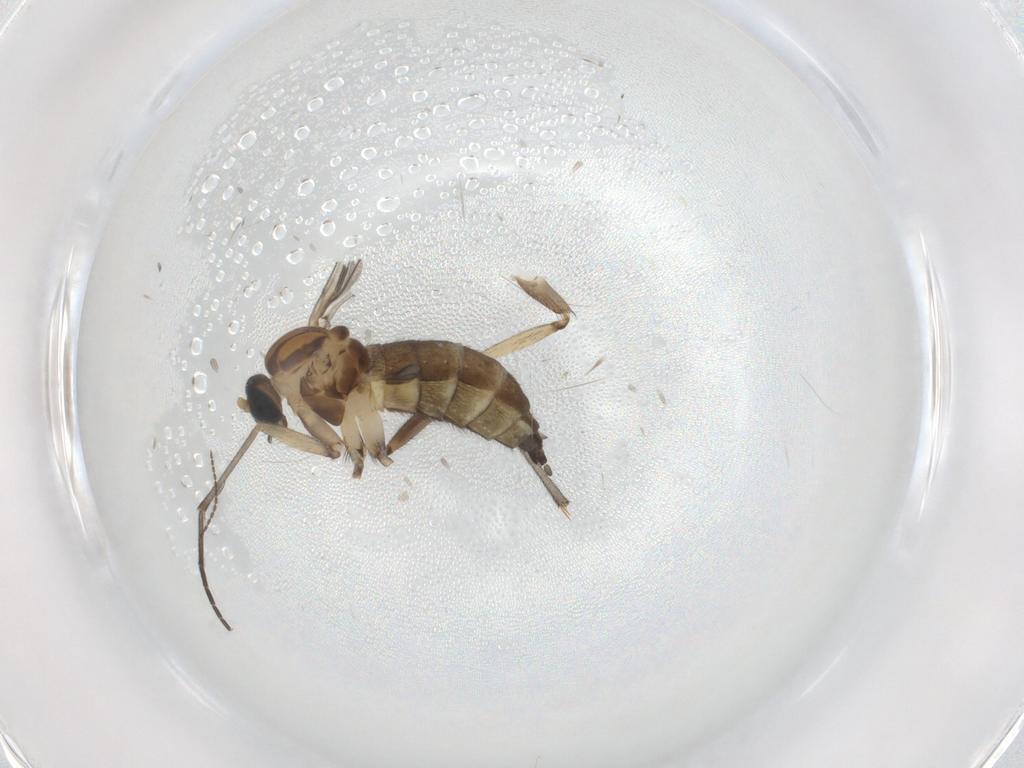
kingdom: Animalia
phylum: Arthropoda
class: Insecta
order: Diptera
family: Sciaridae
